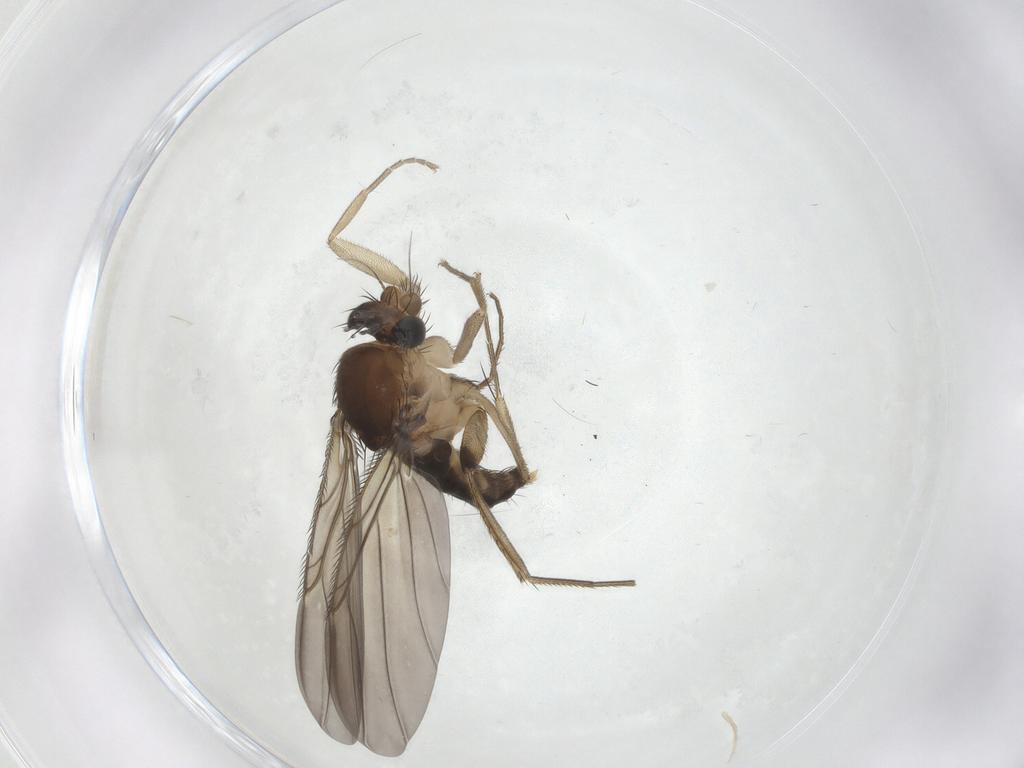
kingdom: Animalia
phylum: Arthropoda
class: Insecta
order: Diptera
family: Phoridae
